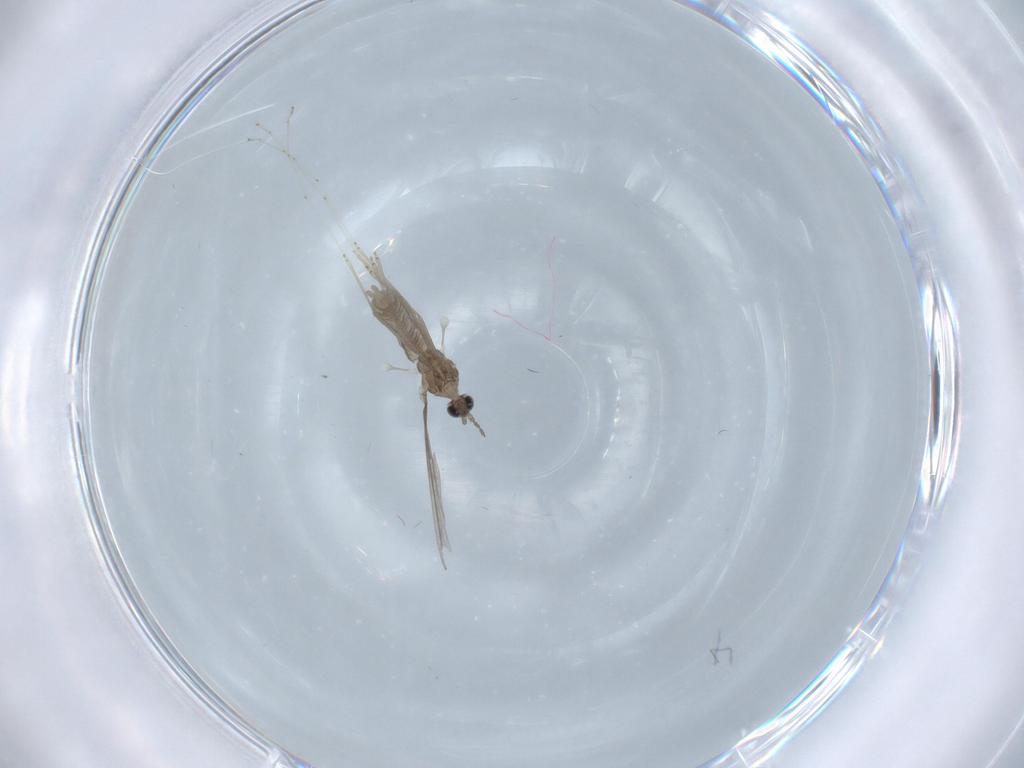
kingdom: Animalia
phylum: Arthropoda
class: Insecta
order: Diptera
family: Cecidomyiidae
